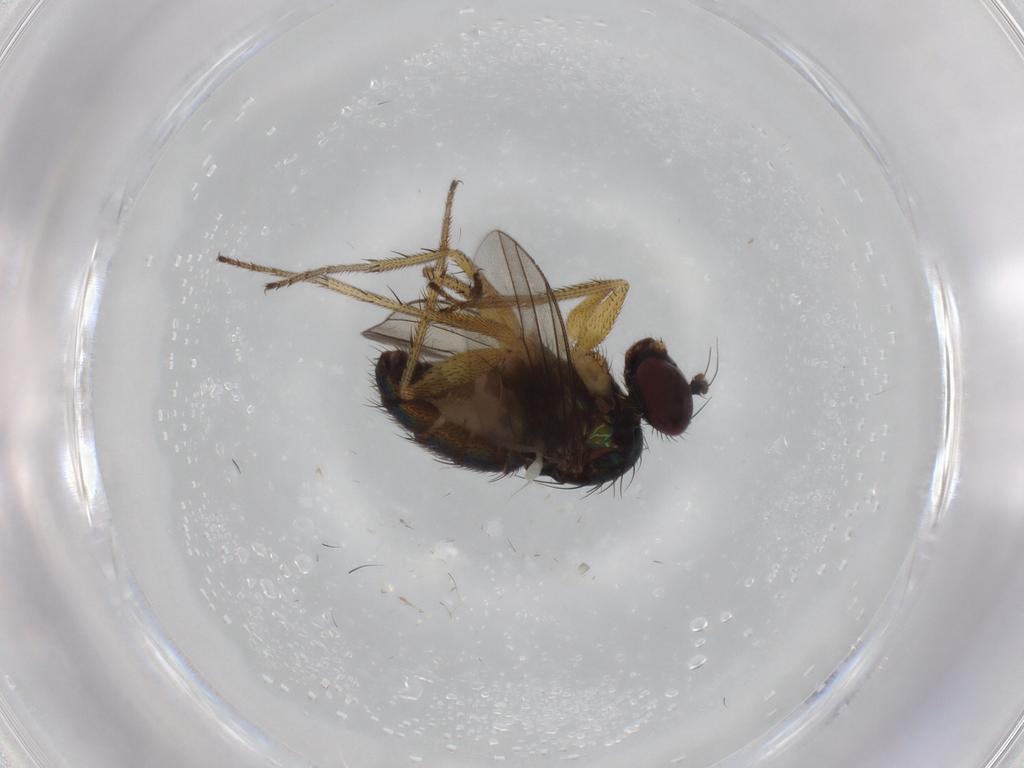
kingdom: Animalia
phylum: Arthropoda
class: Insecta
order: Diptera
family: Dolichopodidae
